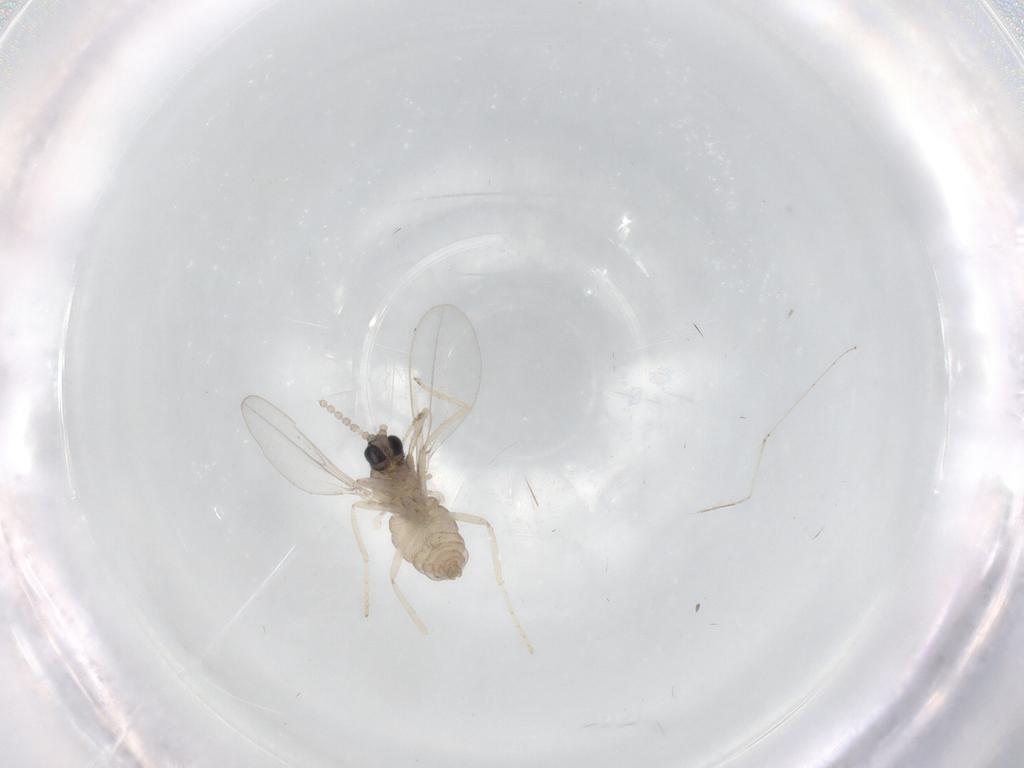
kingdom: Animalia
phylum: Arthropoda
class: Insecta
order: Diptera
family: Cecidomyiidae
